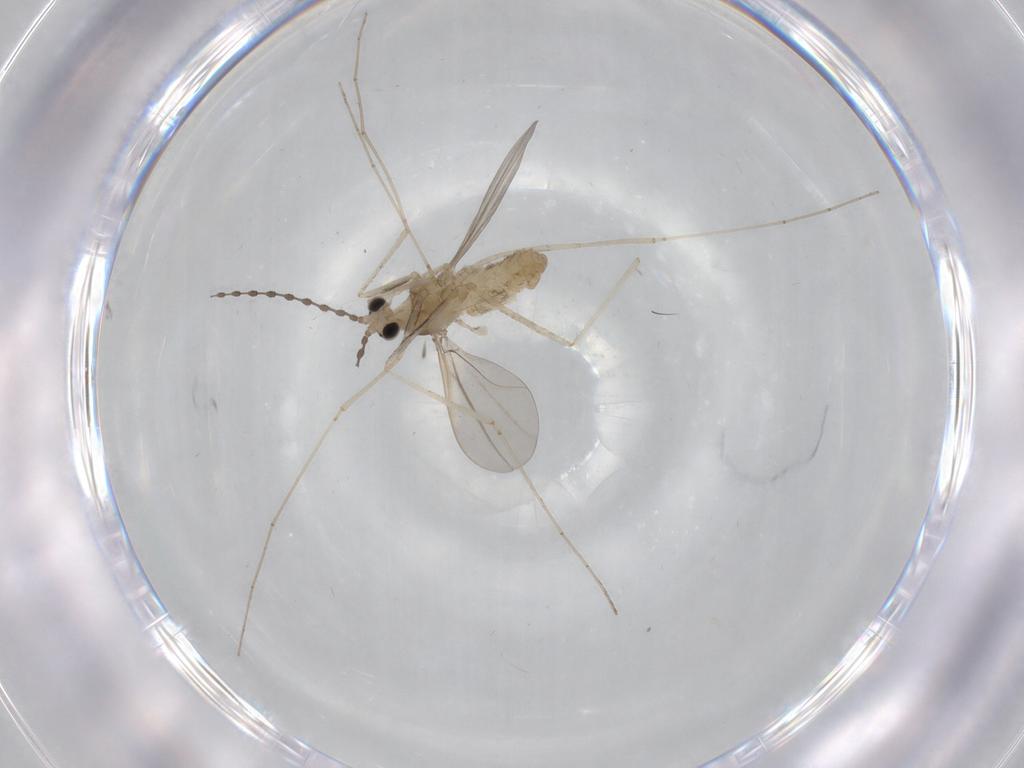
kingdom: Animalia
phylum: Arthropoda
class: Insecta
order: Diptera
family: Cecidomyiidae
